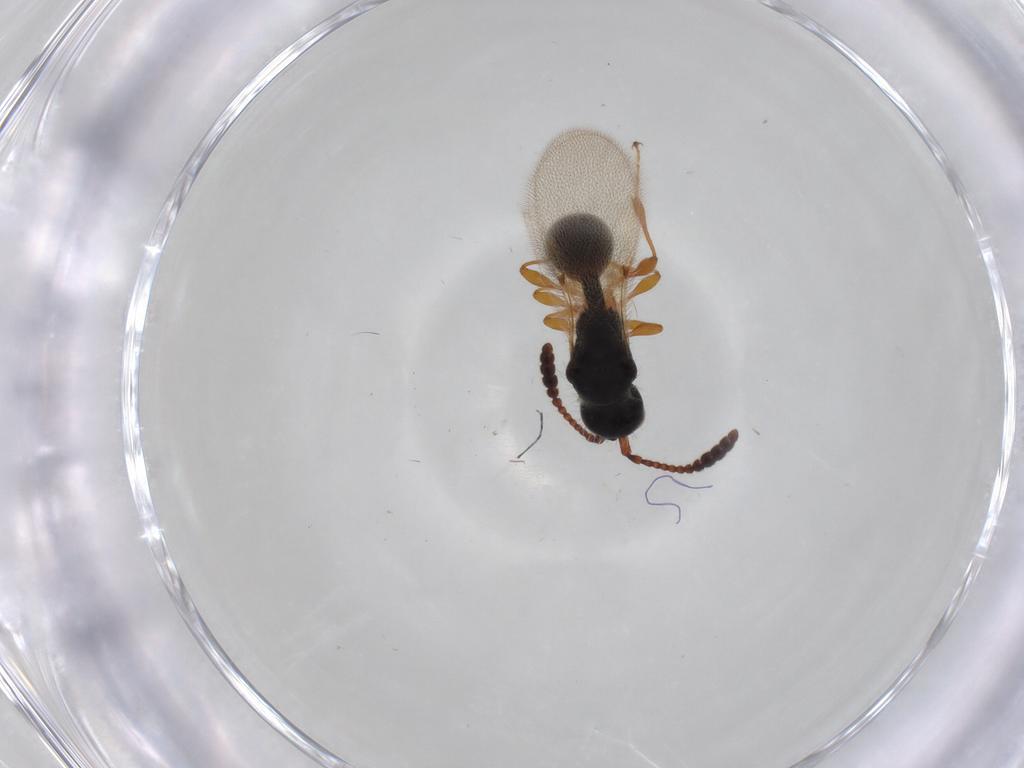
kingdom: Animalia
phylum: Arthropoda
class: Insecta
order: Hymenoptera
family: Diapriidae
